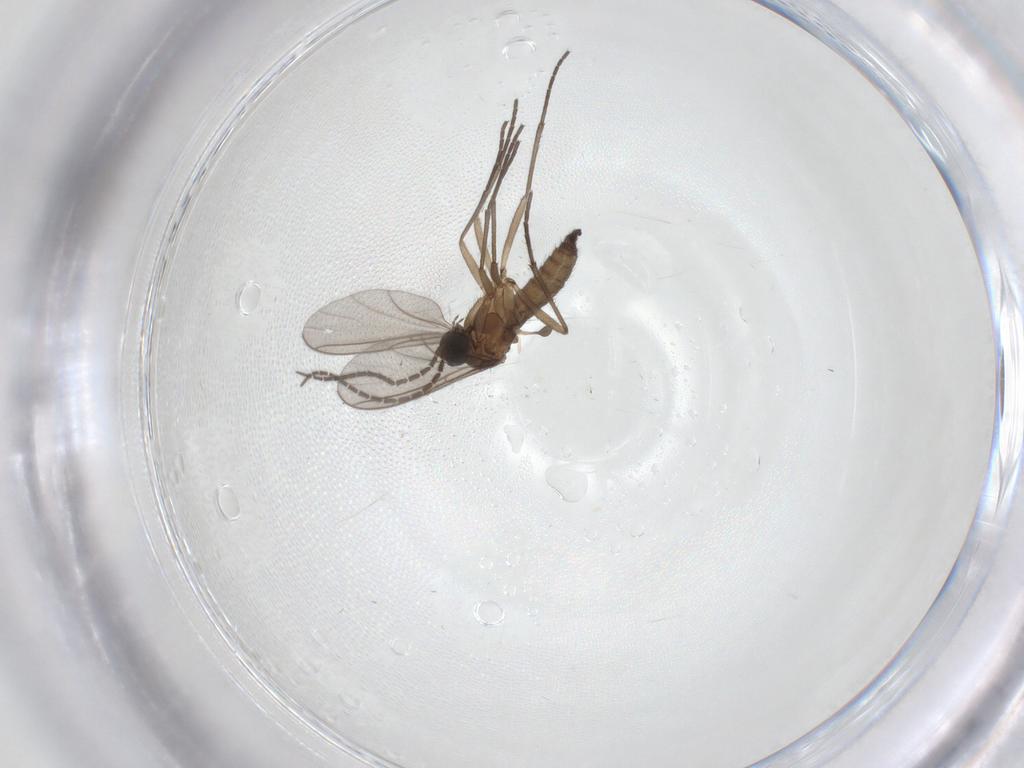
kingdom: Animalia
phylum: Arthropoda
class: Insecta
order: Diptera
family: Sciaridae
